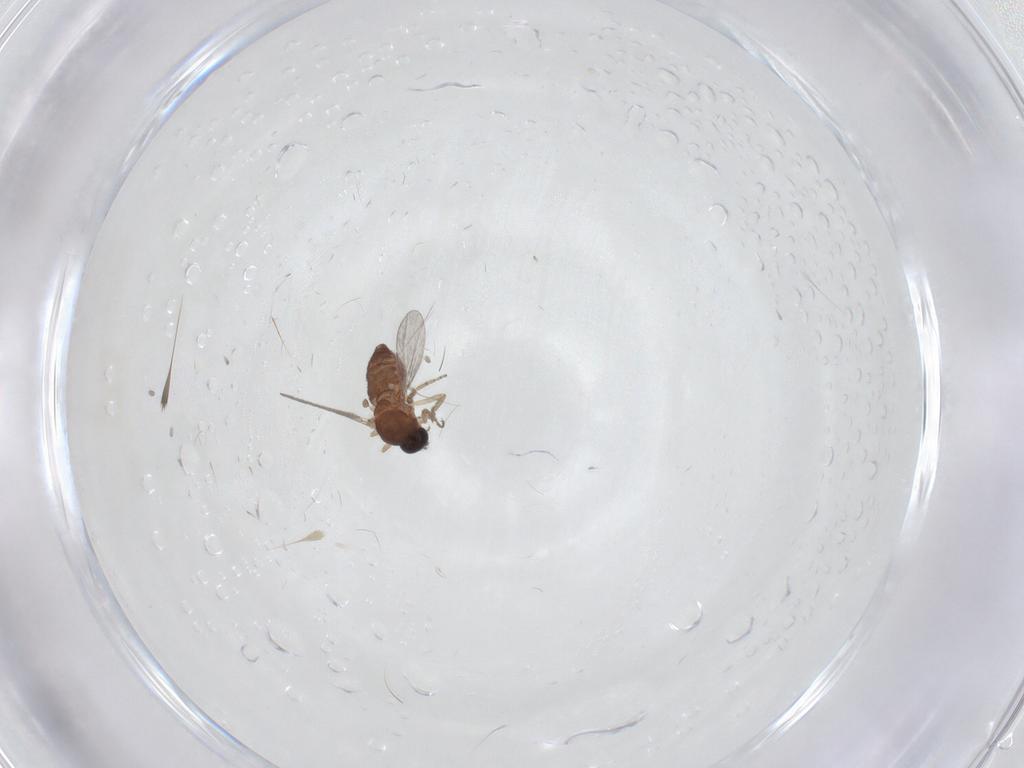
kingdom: Animalia
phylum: Arthropoda
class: Insecta
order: Diptera
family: Ceratopogonidae
